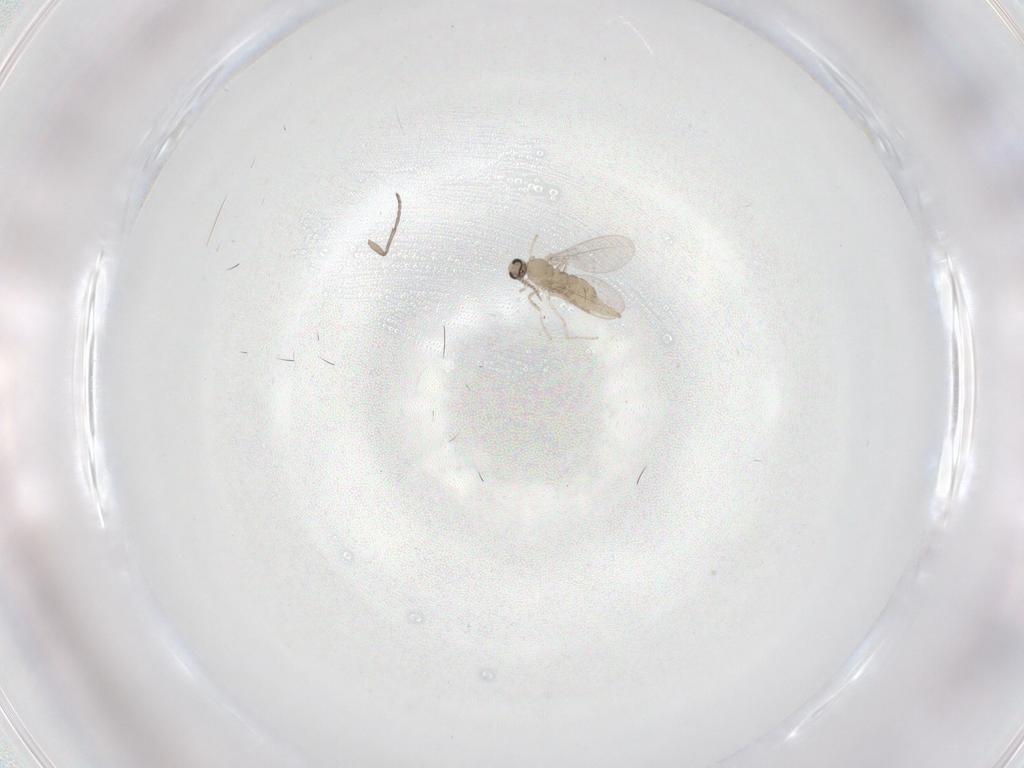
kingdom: Animalia
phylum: Arthropoda
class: Insecta
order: Diptera
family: Cecidomyiidae
